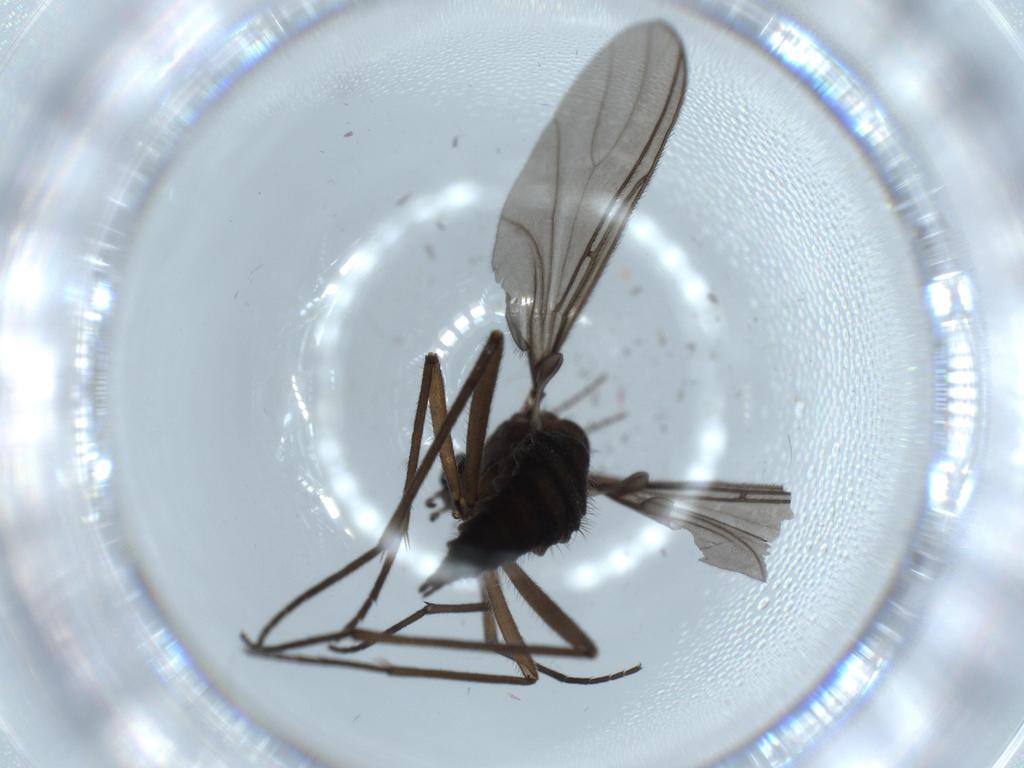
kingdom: Animalia
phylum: Arthropoda
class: Insecta
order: Diptera
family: Sciaridae
